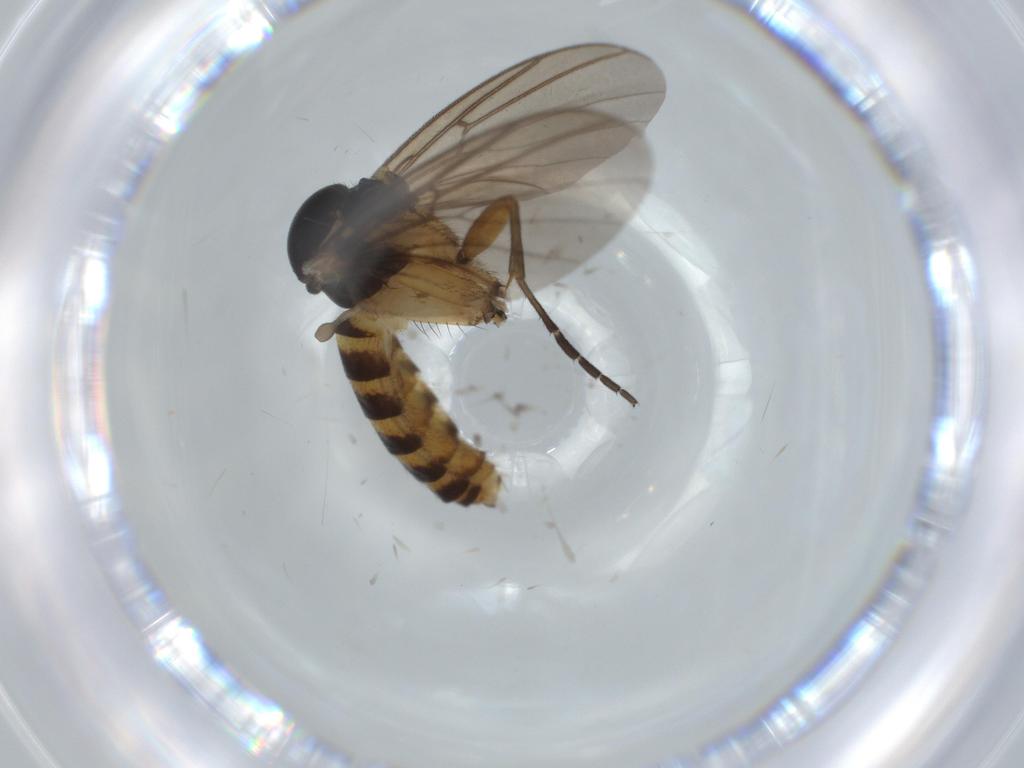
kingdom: Animalia
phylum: Arthropoda
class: Insecta
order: Diptera
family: Mycetophilidae
